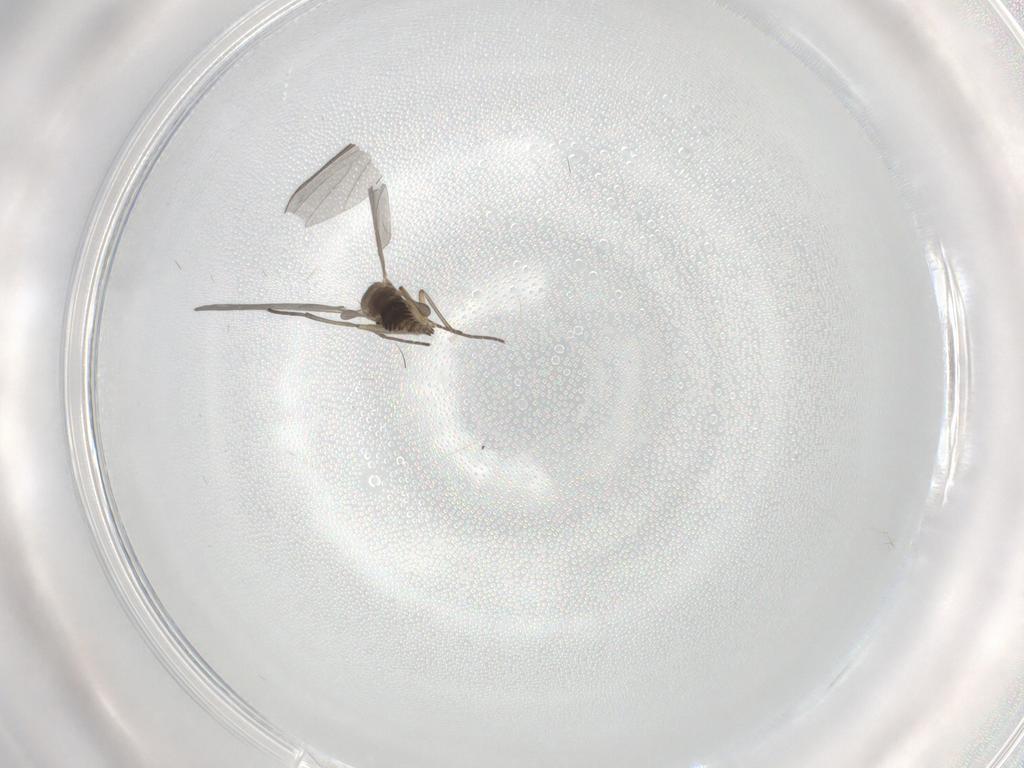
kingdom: Animalia
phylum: Arthropoda
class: Insecta
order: Diptera
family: Sciaridae
